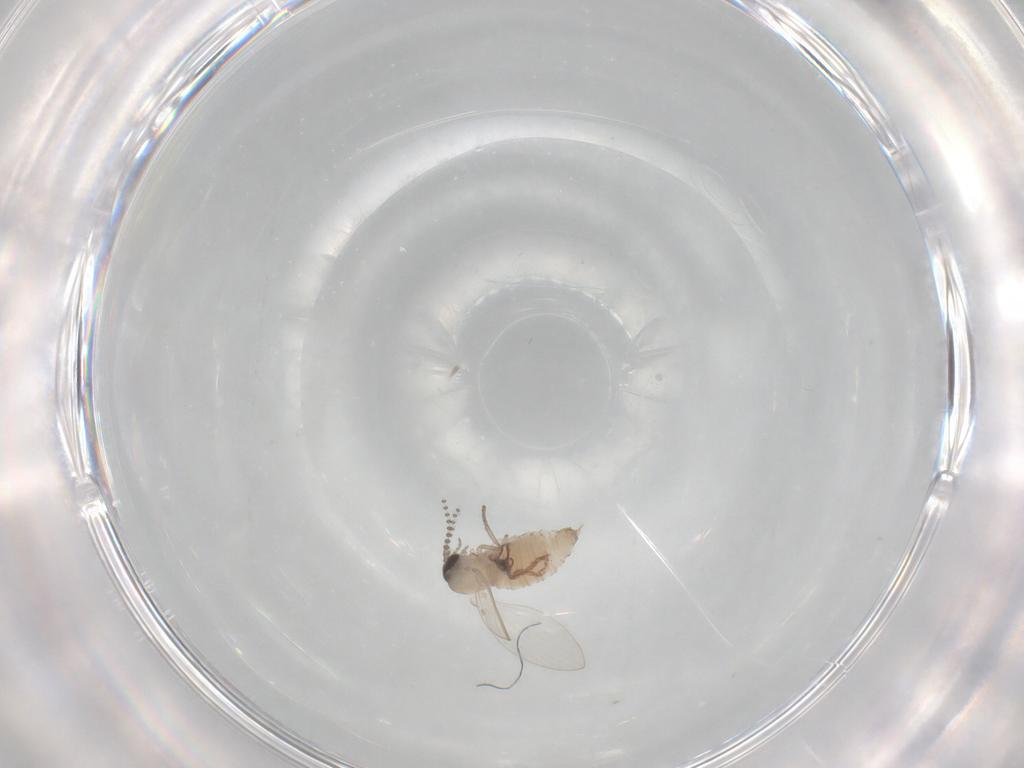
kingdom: Animalia
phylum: Arthropoda
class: Insecta
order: Diptera
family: Psychodidae
